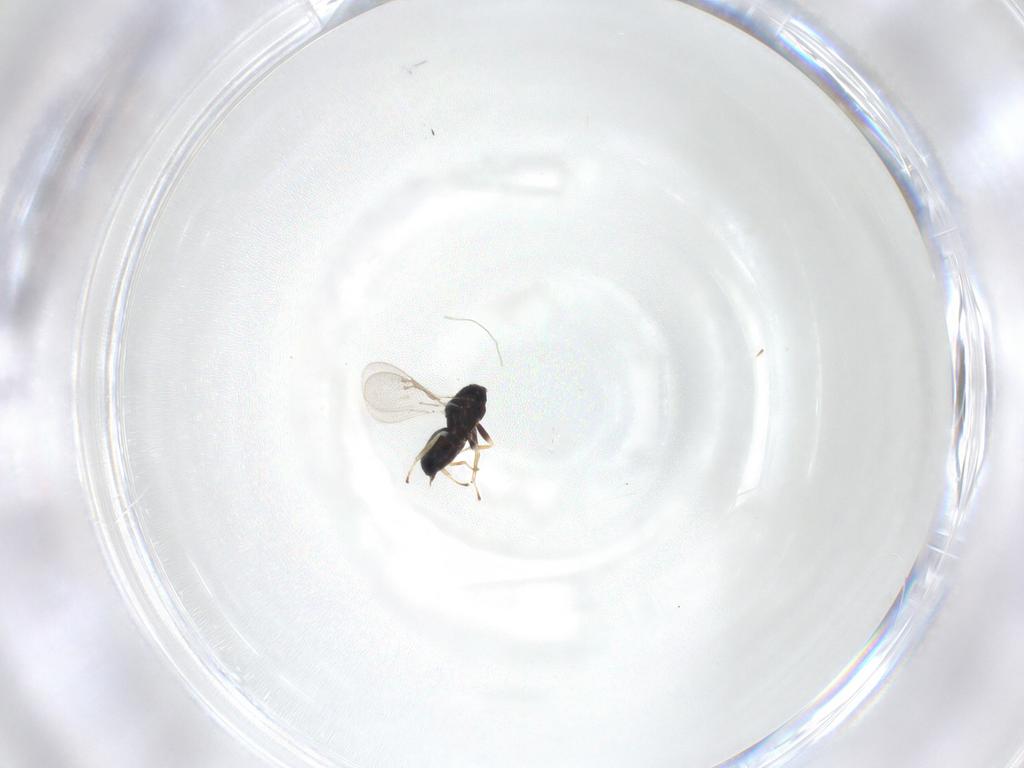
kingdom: Animalia
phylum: Arthropoda
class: Insecta
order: Hymenoptera
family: Eulophidae
